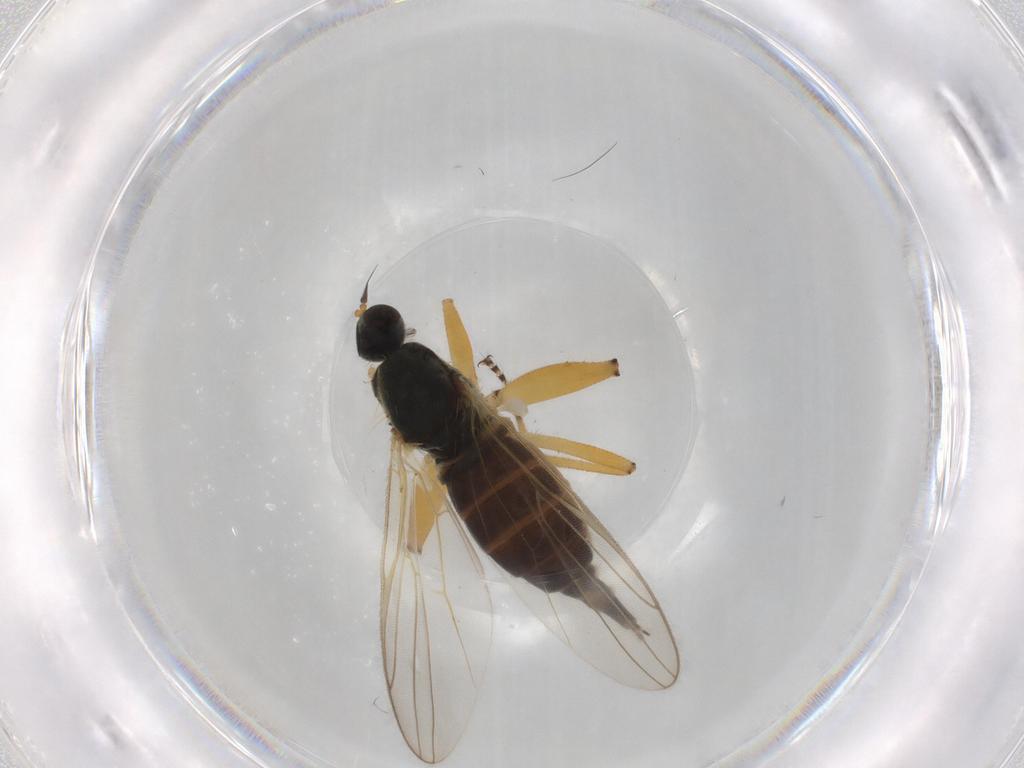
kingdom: Animalia
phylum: Arthropoda
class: Insecta
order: Diptera
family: Hybotidae
